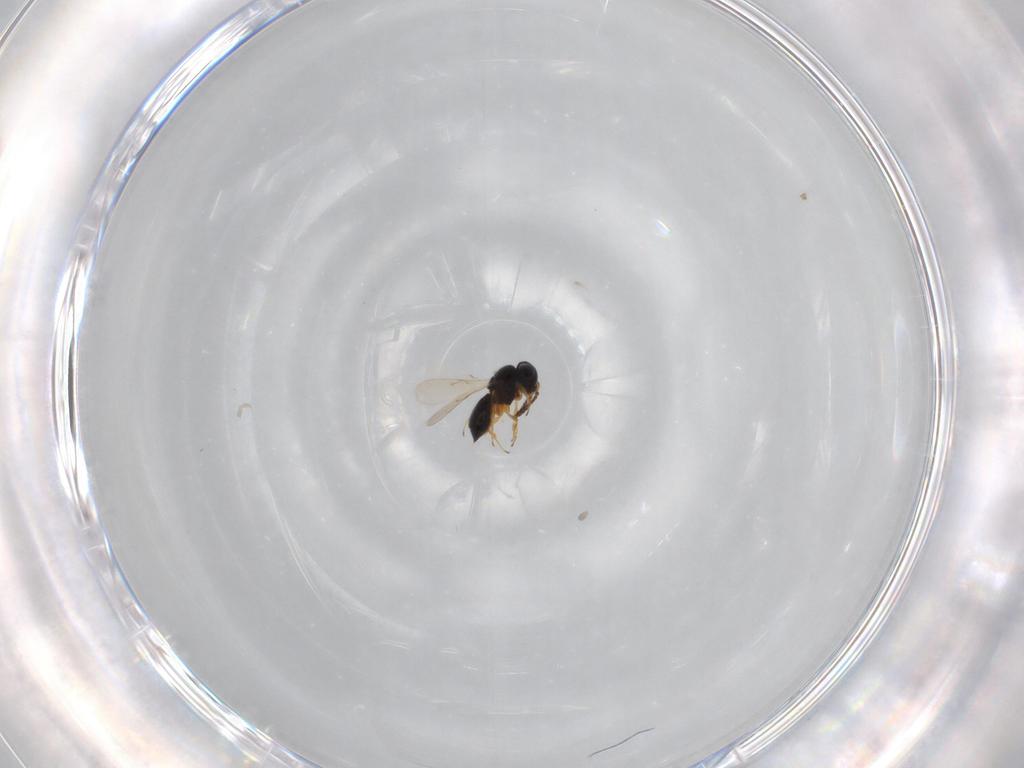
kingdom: Animalia
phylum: Arthropoda
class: Insecta
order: Hymenoptera
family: Scelionidae
